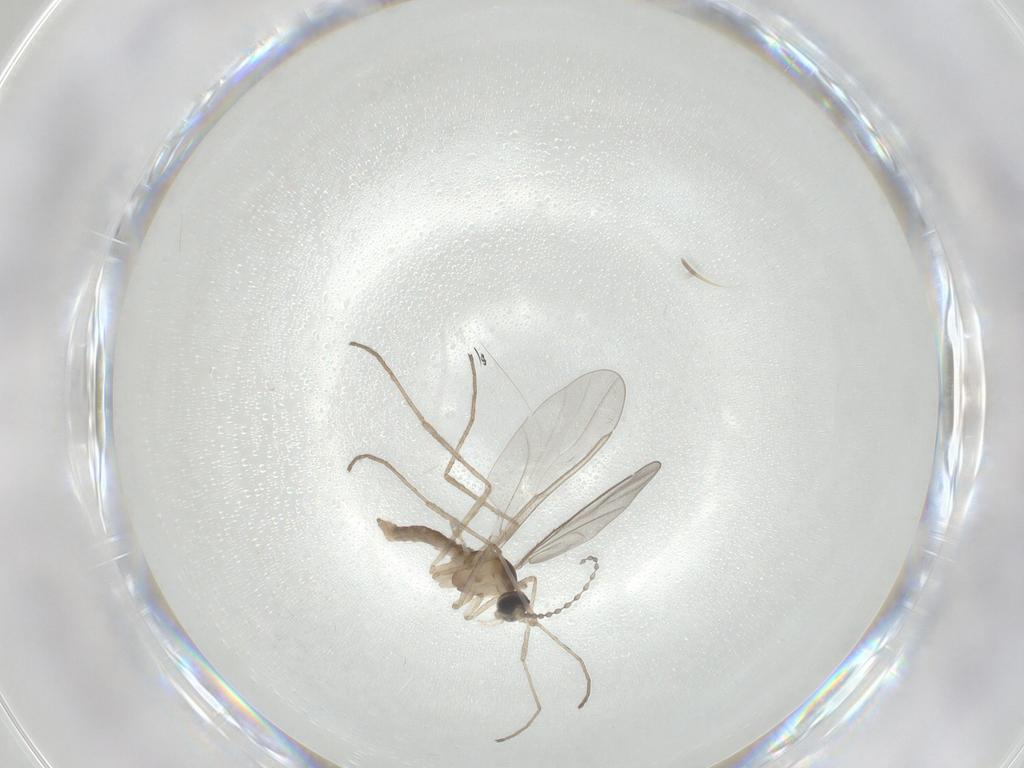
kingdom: Animalia
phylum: Arthropoda
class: Insecta
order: Diptera
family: Cecidomyiidae
